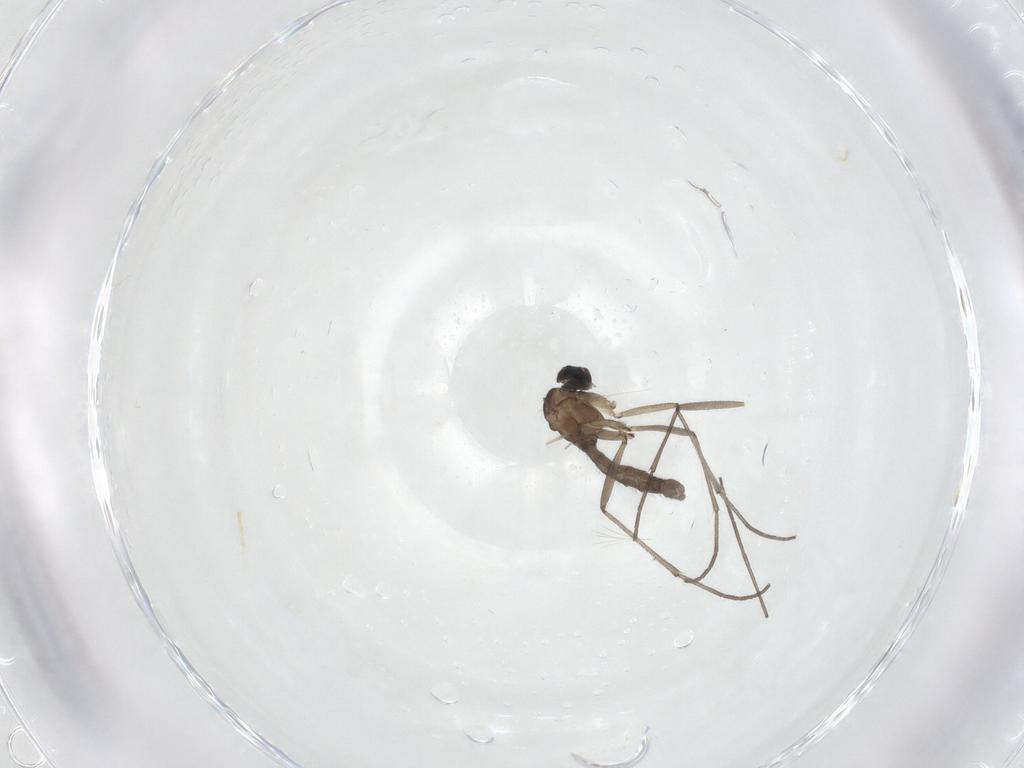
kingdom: Animalia
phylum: Arthropoda
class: Insecta
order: Diptera
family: Sciaridae
